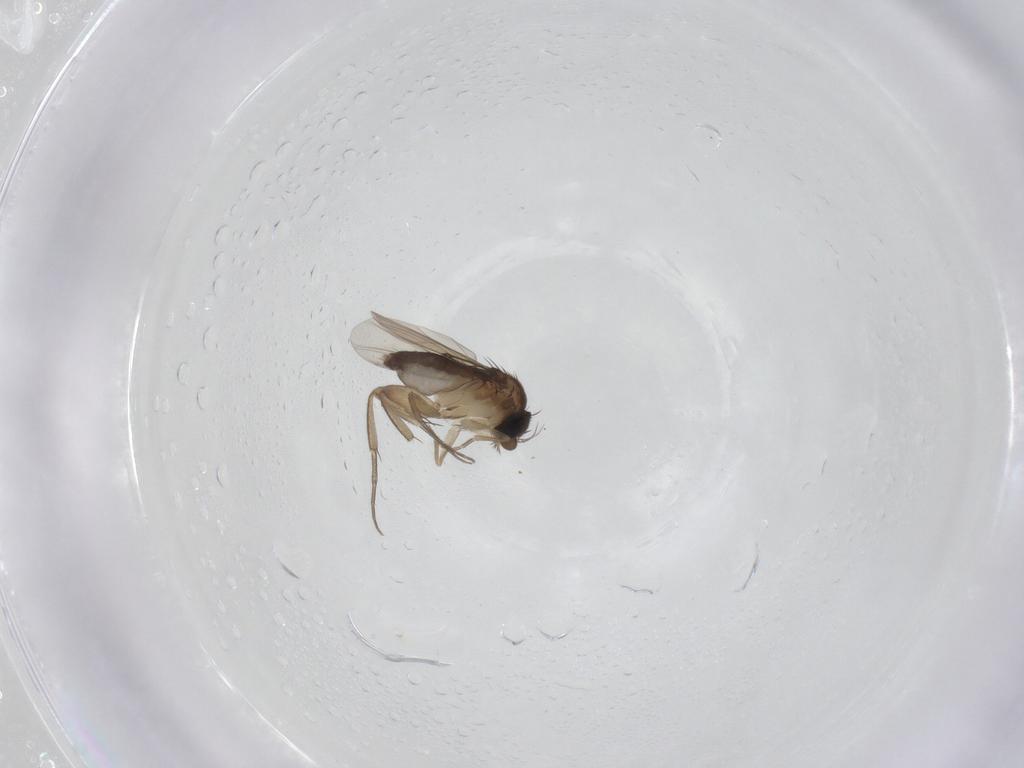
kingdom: Animalia
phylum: Arthropoda
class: Insecta
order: Diptera
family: Phoridae
